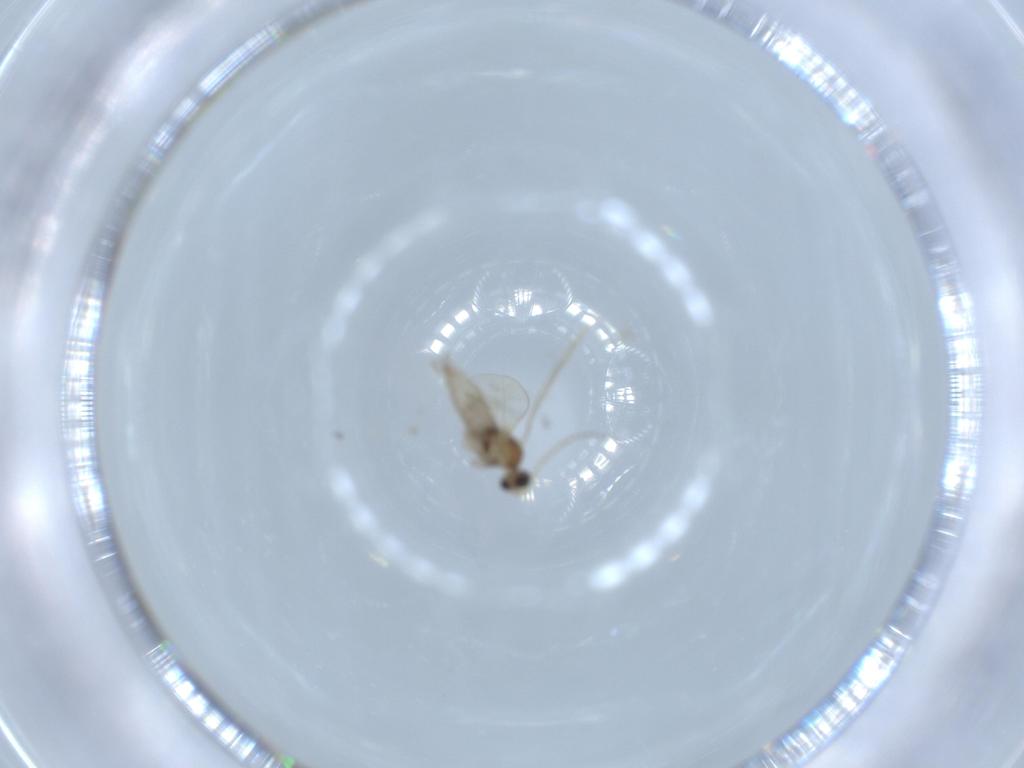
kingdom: Animalia
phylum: Arthropoda
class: Insecta
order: Diptera
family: Cecidomyiidae
